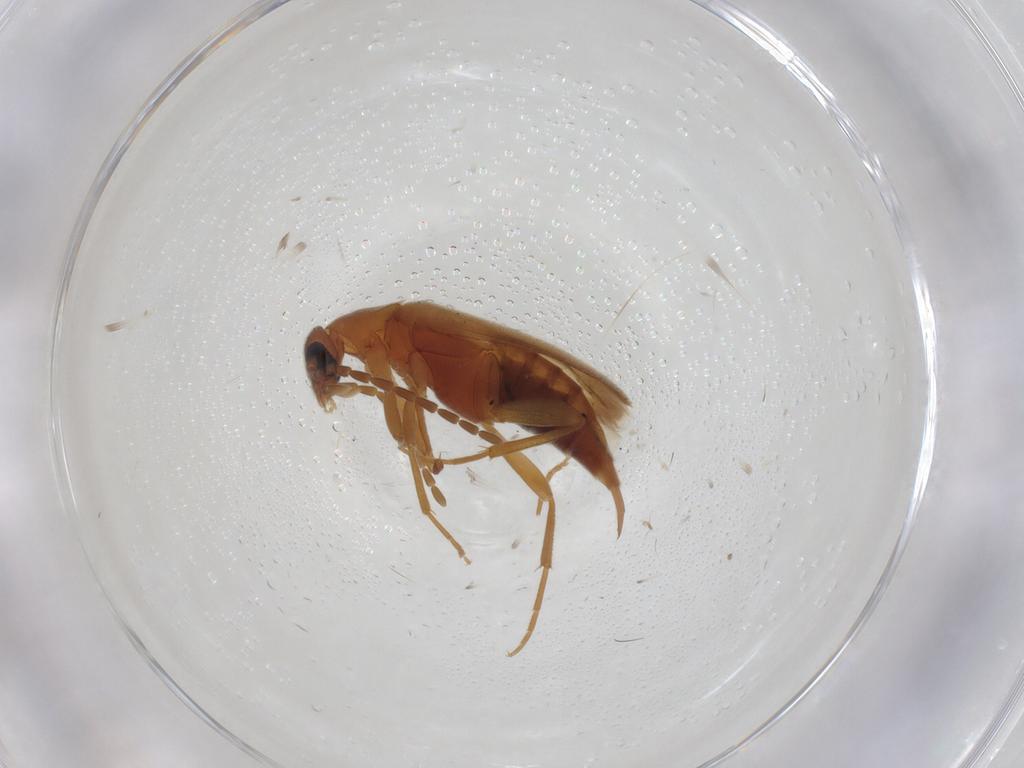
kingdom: Animalia
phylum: Arthropoda
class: Insecta
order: Coleoptera
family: Scraptiidae
